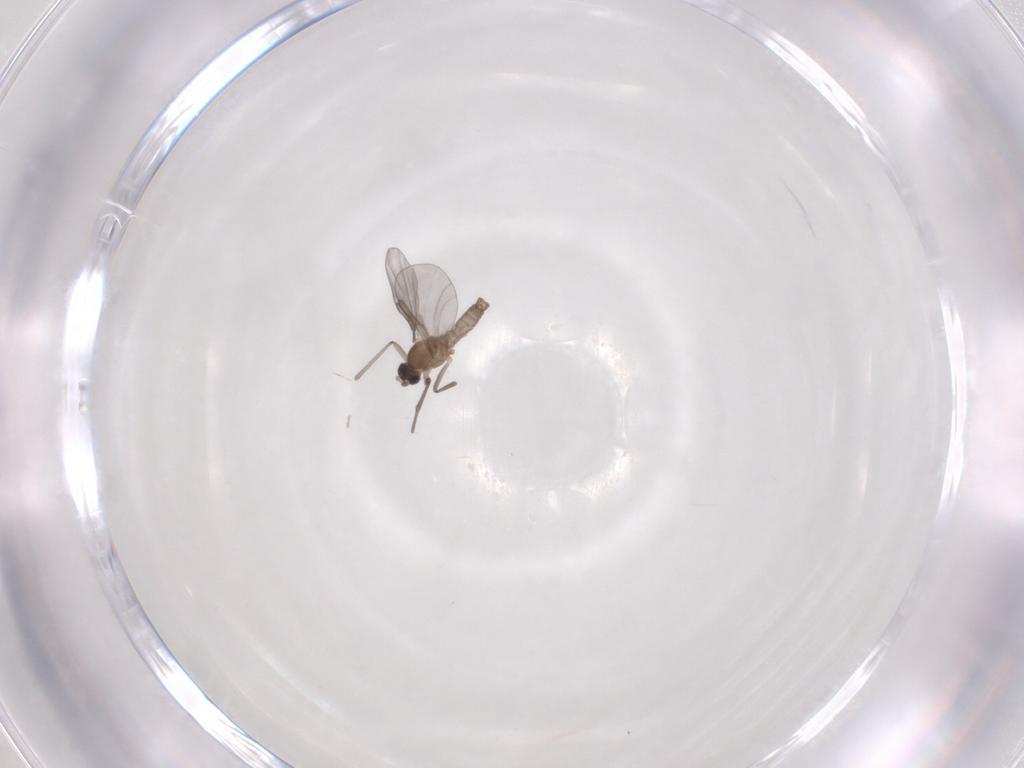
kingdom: Animalia
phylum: Arthropoda
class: Insecta
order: Diptera
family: Cecidomyiidae
